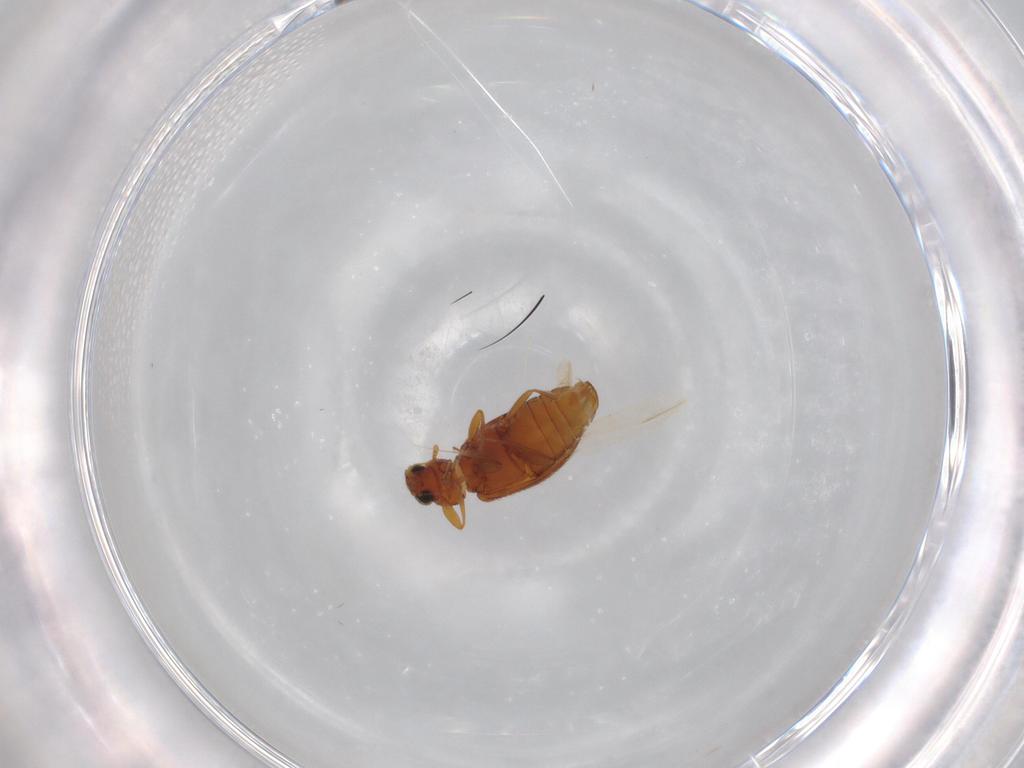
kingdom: Animalia
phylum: Arthropoda
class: Insecta
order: Coleoptera
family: Latridiidae
